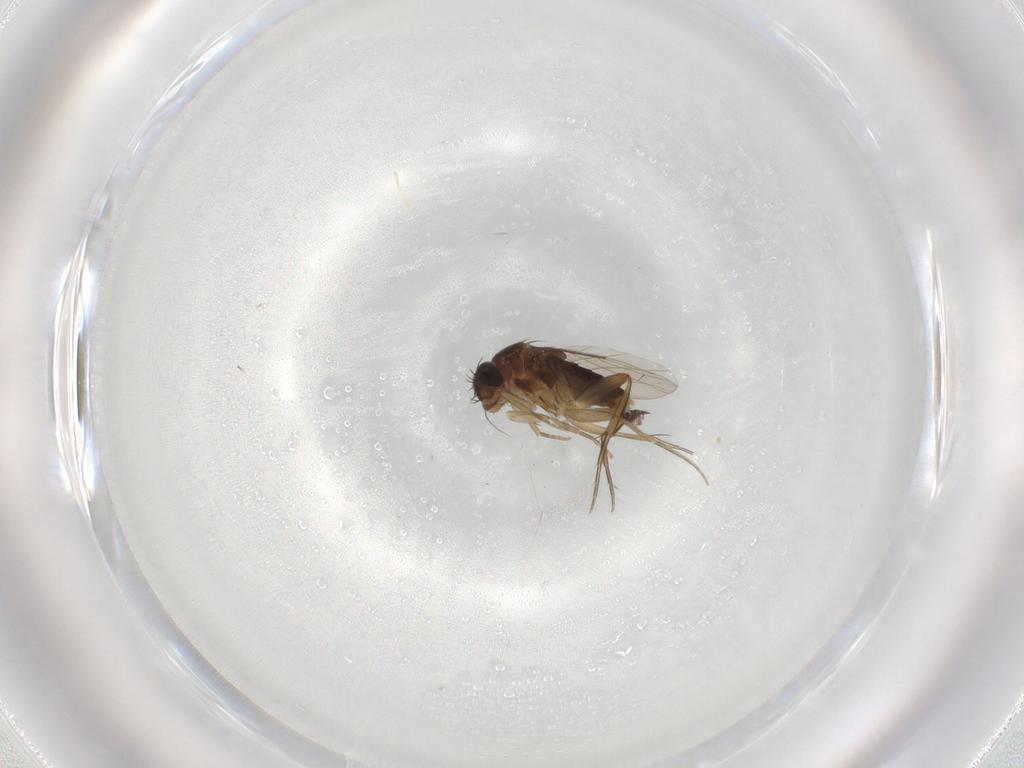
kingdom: Animalia
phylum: Arthropoda
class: Insecta
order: Diptera
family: Phoridae
